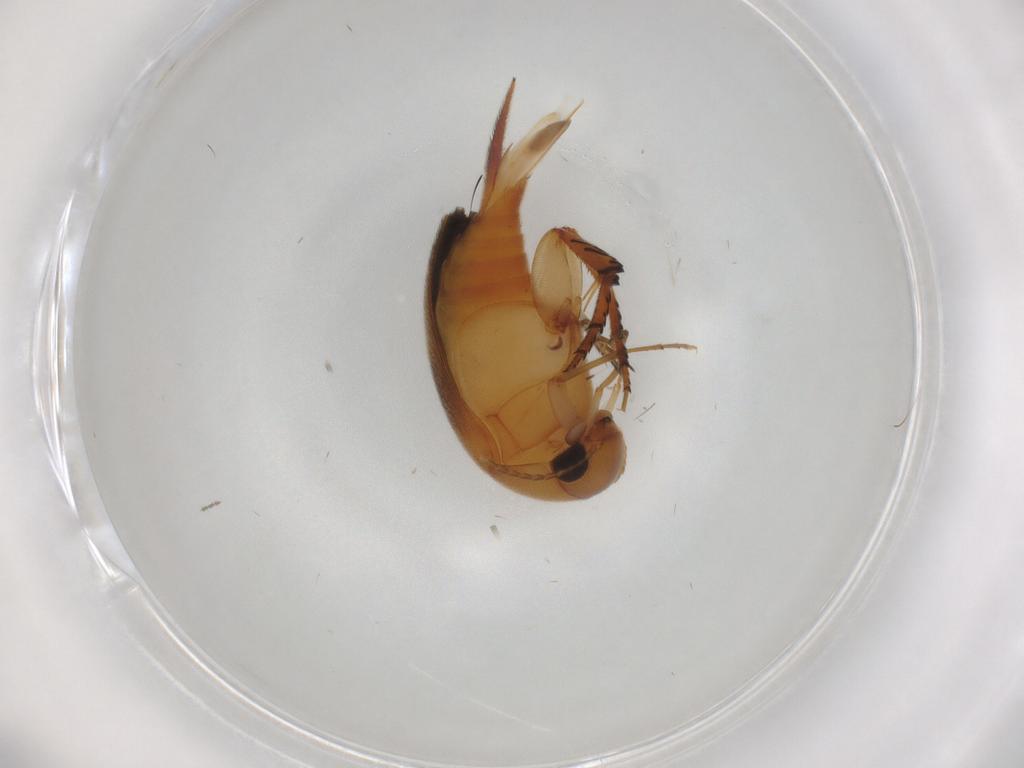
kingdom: Animalia
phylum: Arthropoda
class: Insecta
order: Coleoptera
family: Mordellidae
